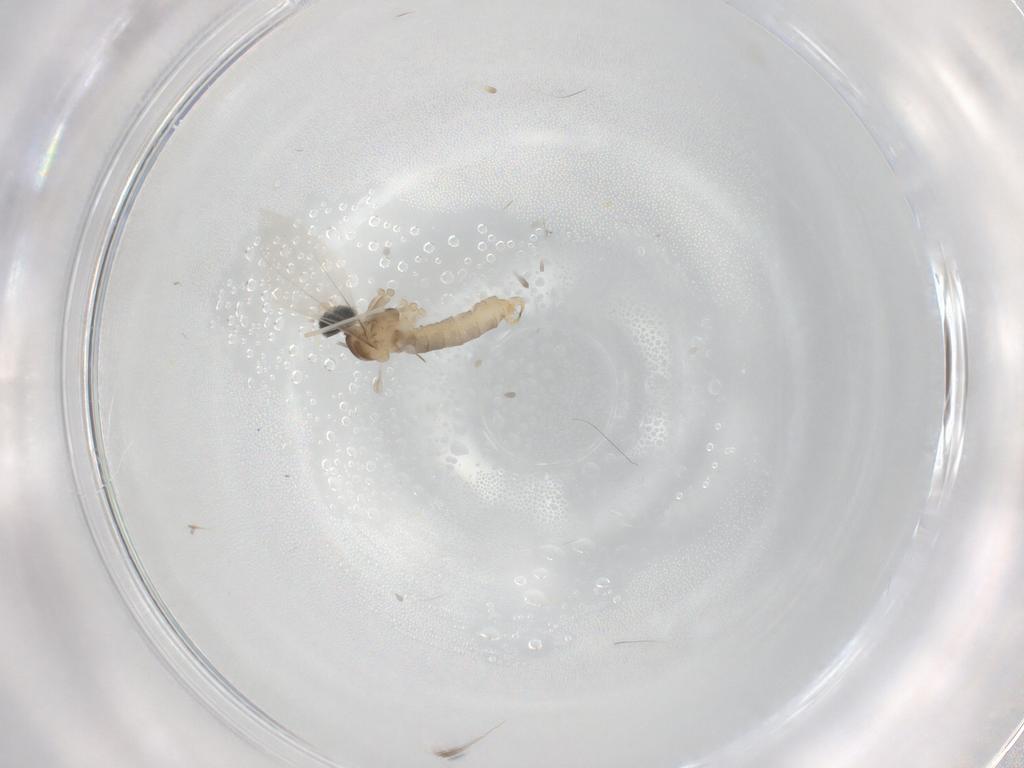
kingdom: Animalia
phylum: Arthropoda
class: Insecta
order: Diptera
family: Cecidomyiidae
